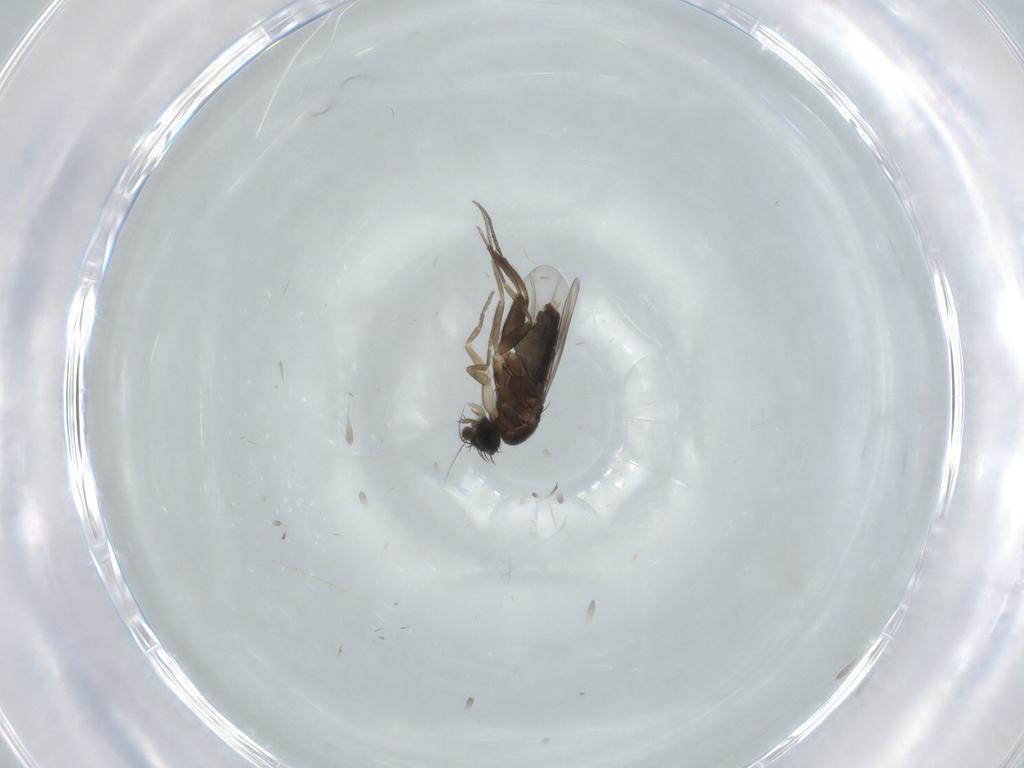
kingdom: Animalia
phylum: Arthropoda
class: Insecta
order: Diptera
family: Phoridae
